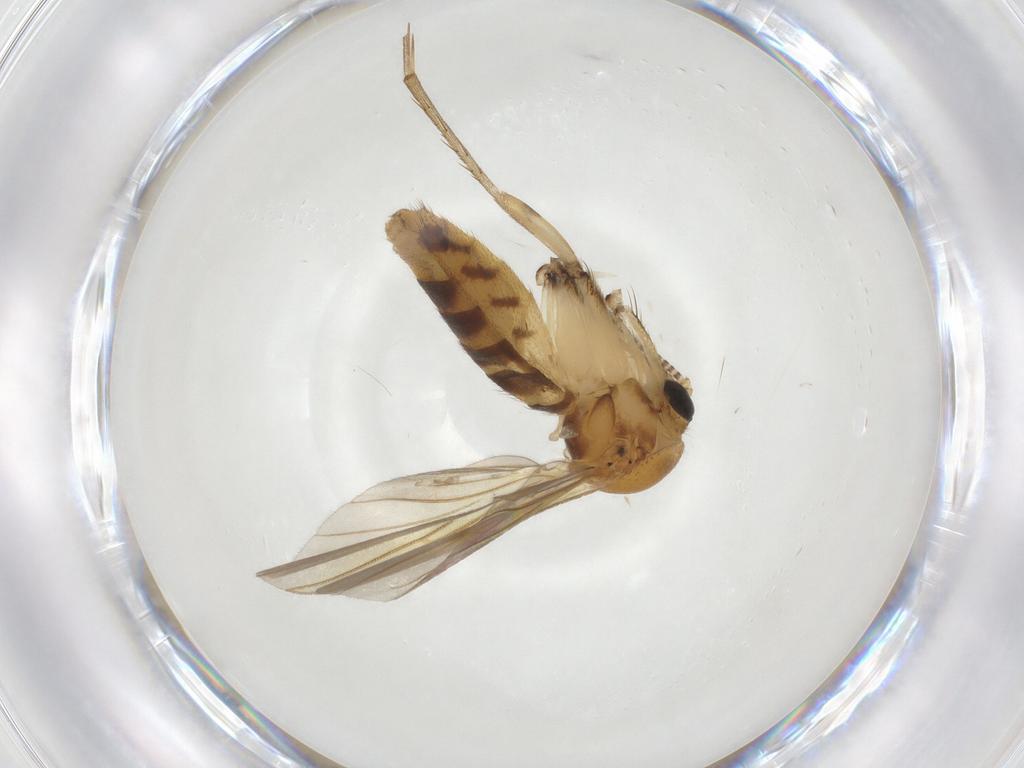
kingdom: Animalia
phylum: Arthropoda
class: Insecta
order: Diptera
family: Mycetophilidae
